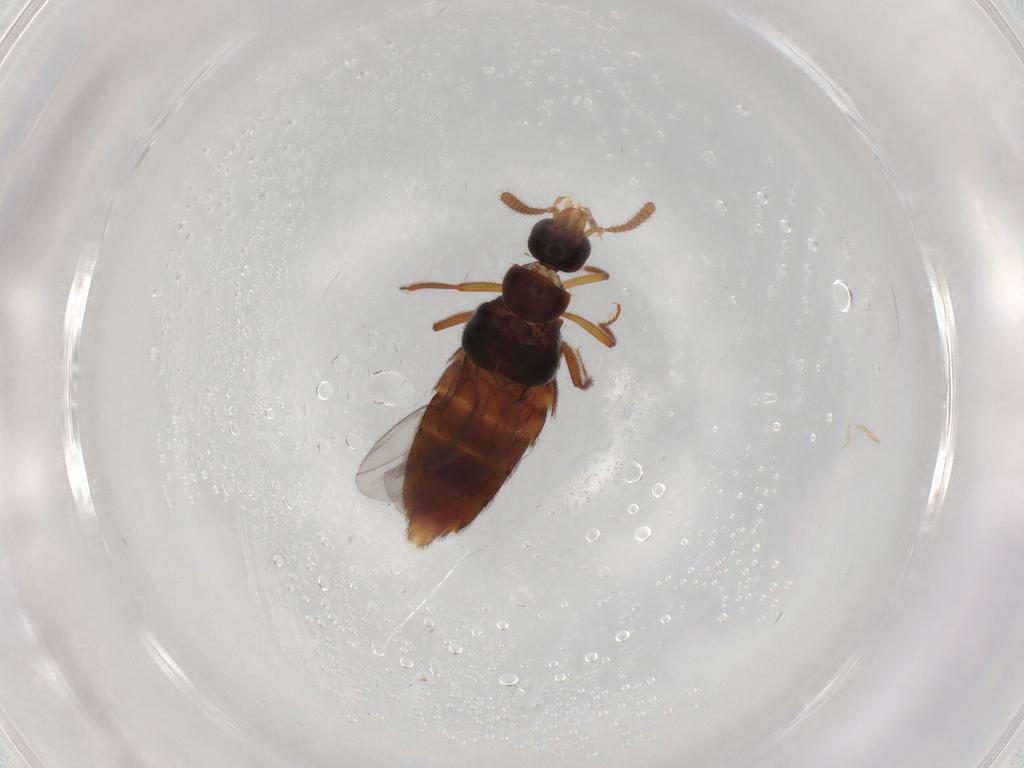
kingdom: Animalia
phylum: Arthropoda
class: Insecta
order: Coleoptera
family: Staphylinidae
